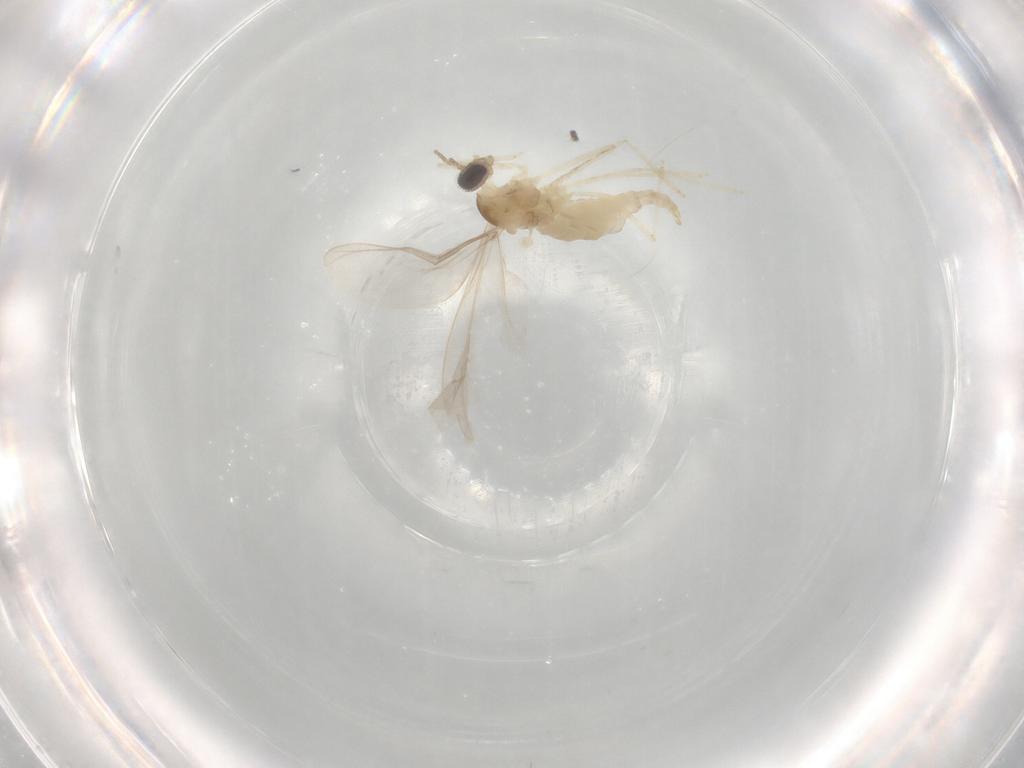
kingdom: Animalia
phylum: Arthropoda
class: Insecta
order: Diptera
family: Cecidomyiidae
